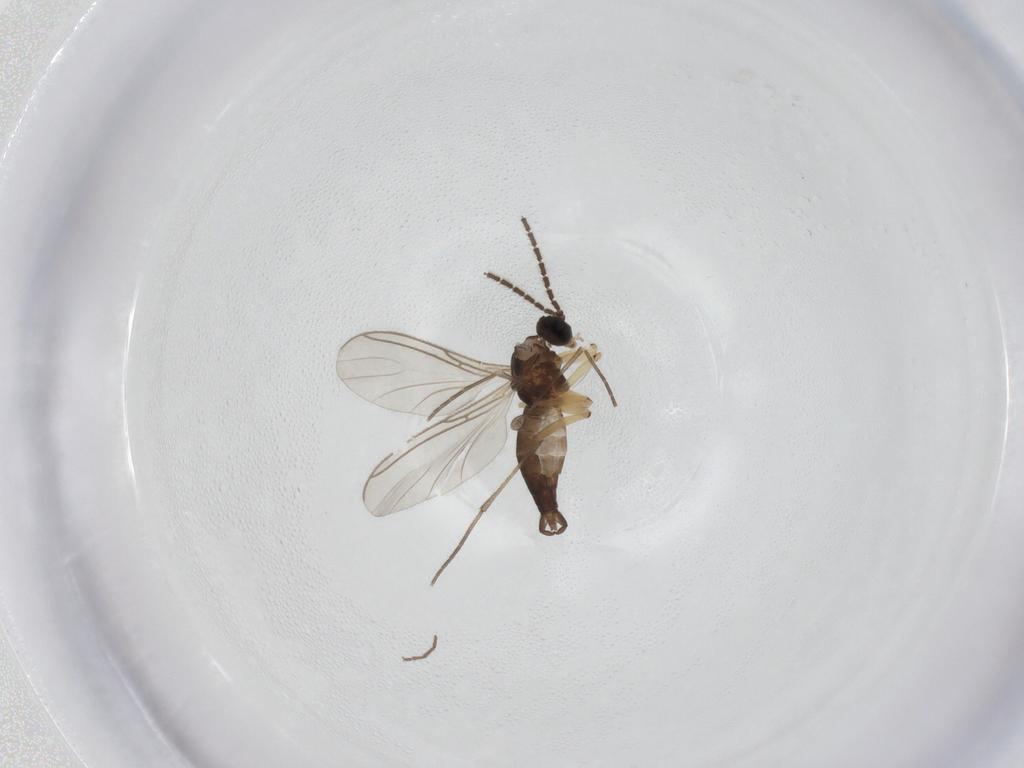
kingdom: Animalia
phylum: Arthropoda
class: Insecta
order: Diptera
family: Sciaridae
